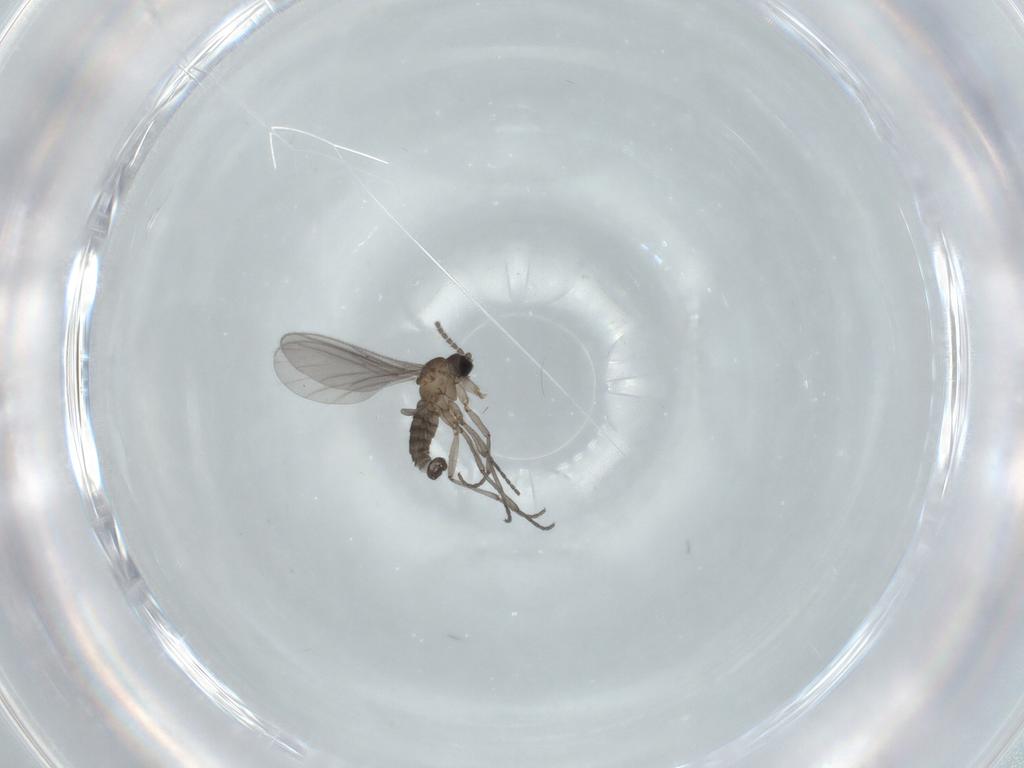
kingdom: Animalia
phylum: Arthropoda
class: Insecta
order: Diptera
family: Sciaridae
